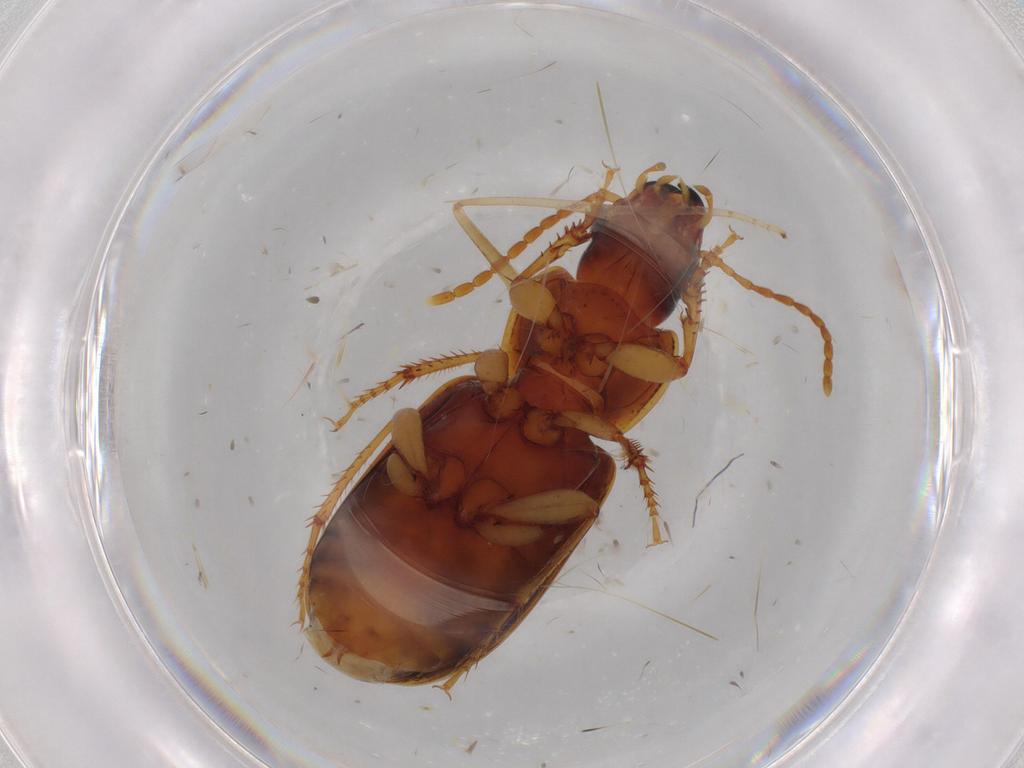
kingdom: Animalia
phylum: Arthropoda
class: Insecta
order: Coleoptera
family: Carabidae
